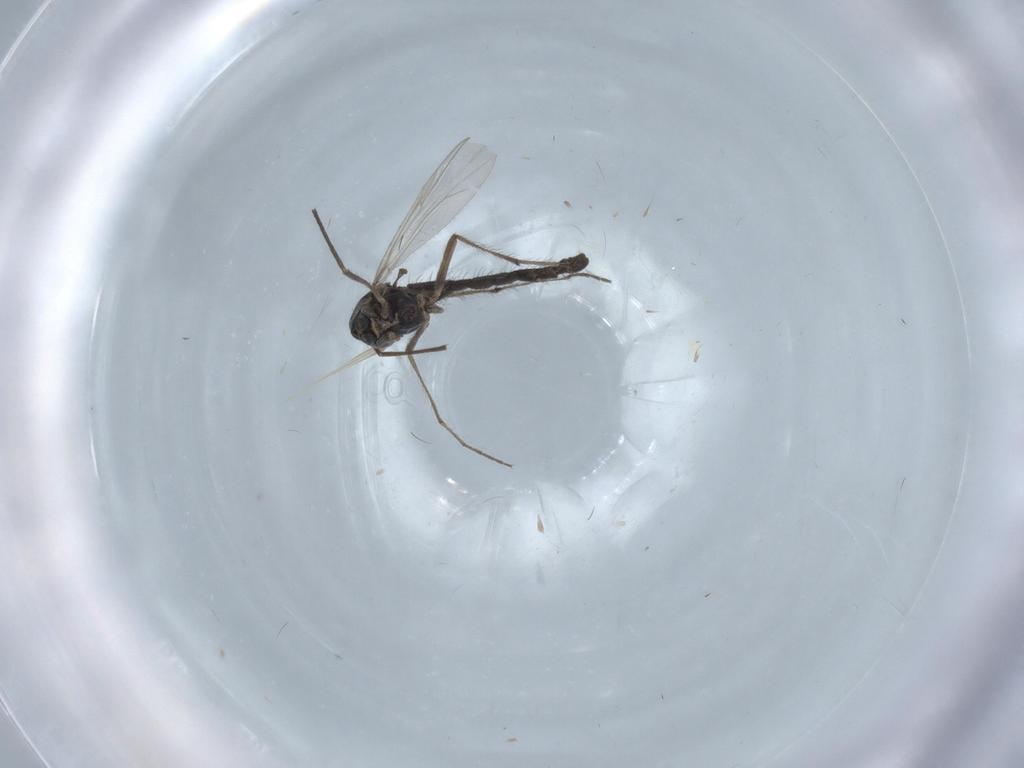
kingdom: Animalia
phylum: Arthropoda
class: Insecta
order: Diptera
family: Chironomidae
